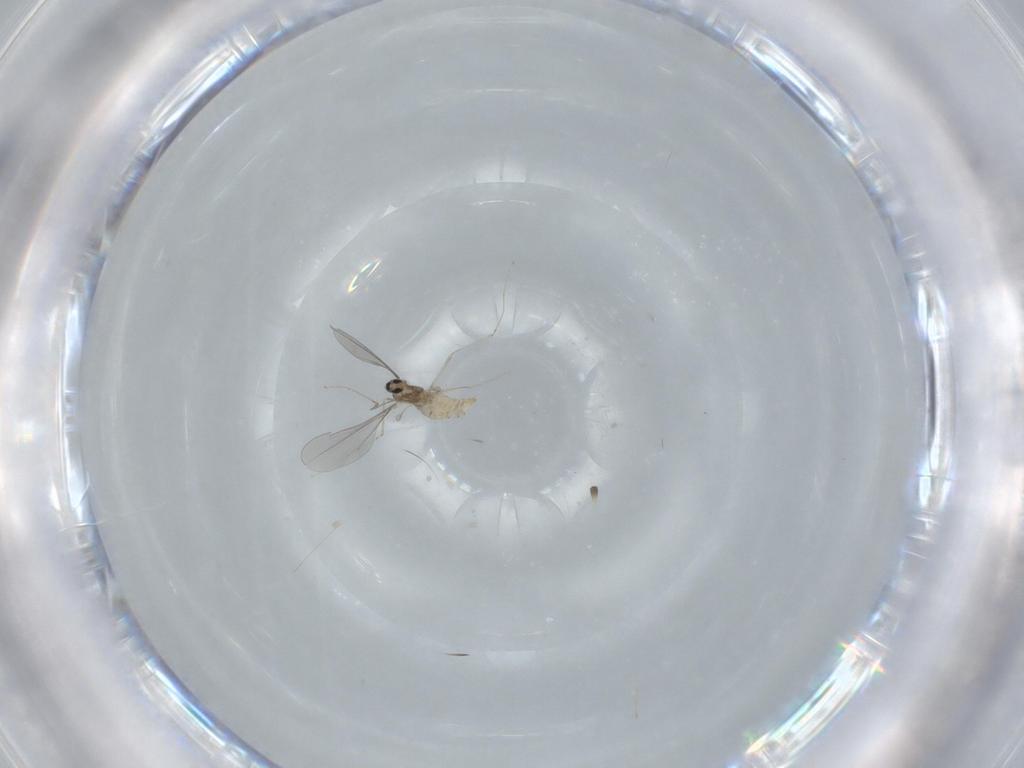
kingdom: Animalia
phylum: Arthropoda
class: Insecta
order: Diptera
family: Cecidomyiidae
